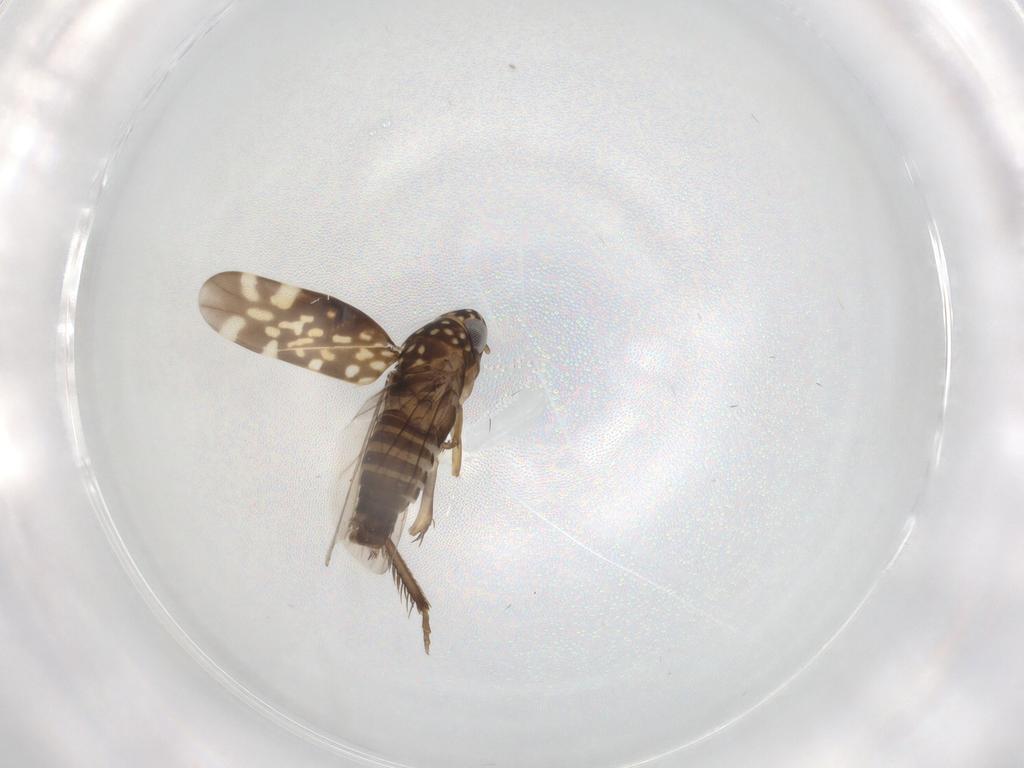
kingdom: Animalia
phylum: Arthropoda
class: Insecta
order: Hemiptera
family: Cicadellidae
